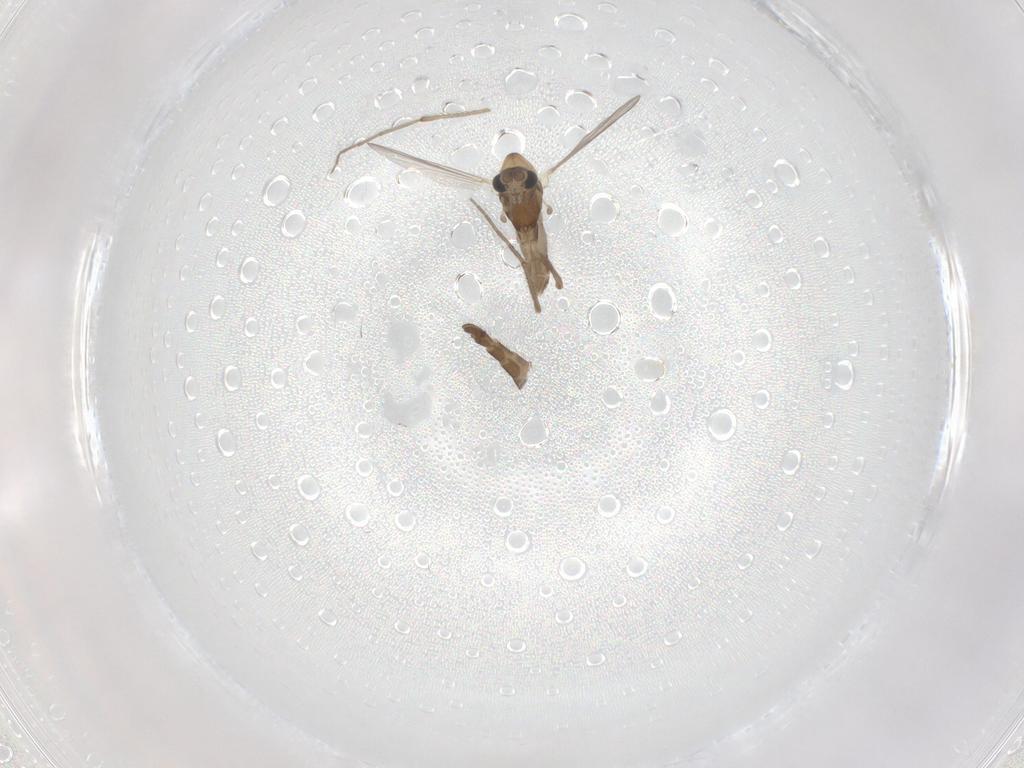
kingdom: Animalia
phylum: Arthropoda
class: Insecta
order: Diptera
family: Chironomidae
